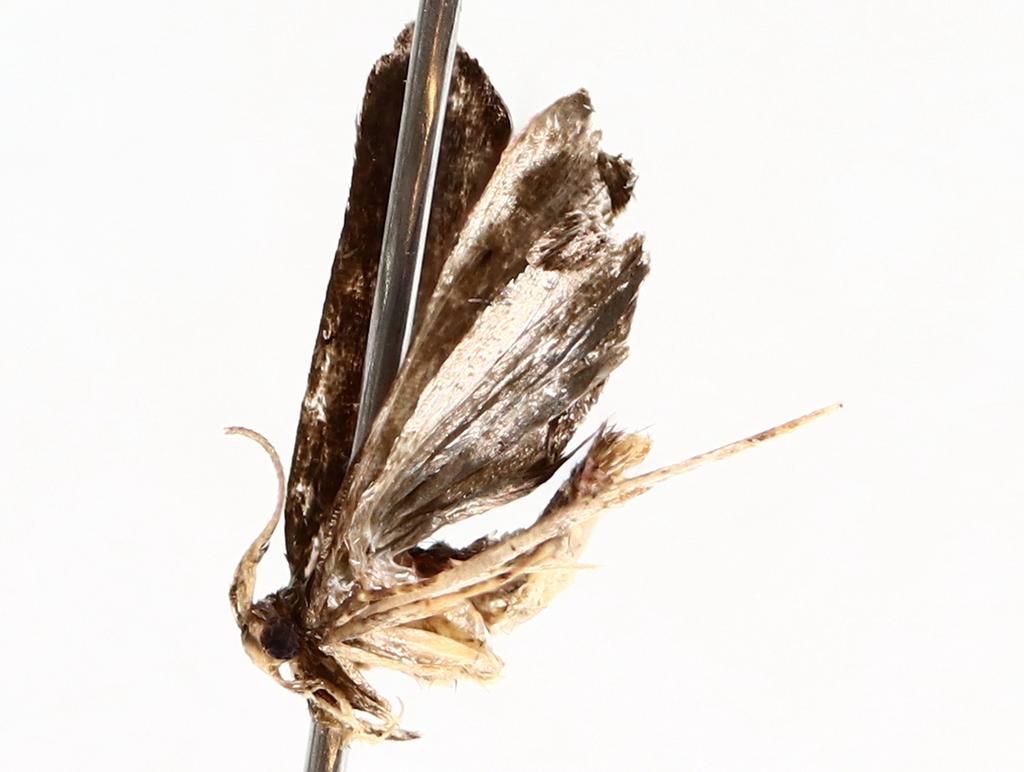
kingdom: Animalia
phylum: Arthropoda
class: Insecta
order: Diptera
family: Sciaridae
